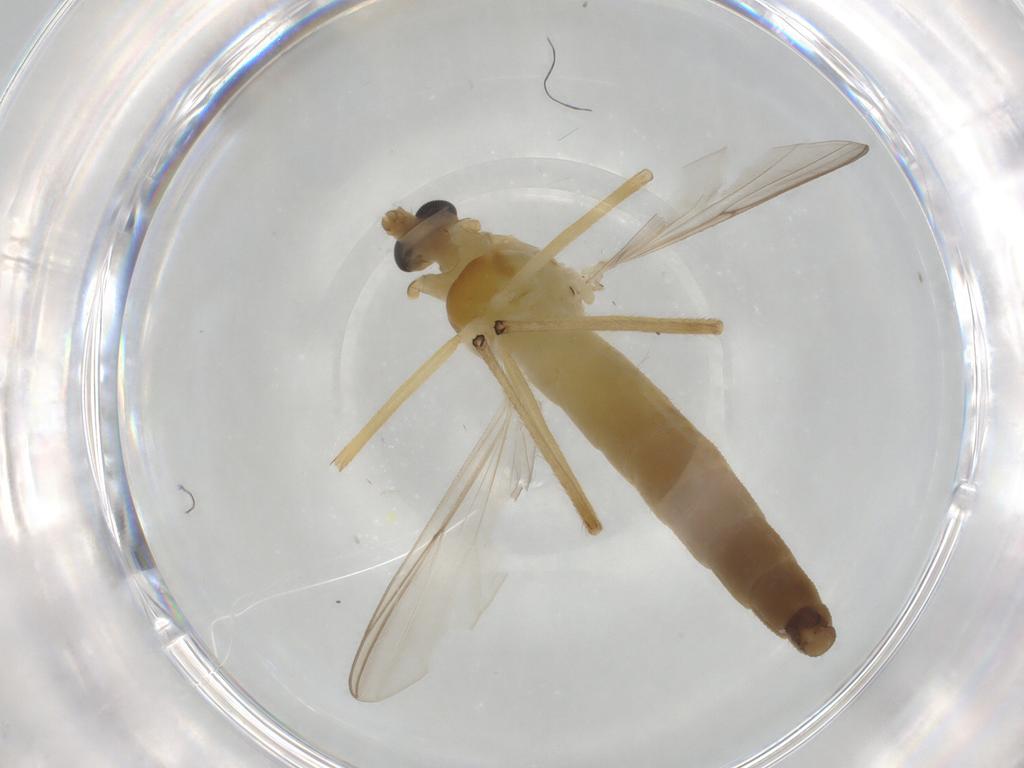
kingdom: Animalia
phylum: Arthropoda
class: Insecta
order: Diptera
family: Chironomidae
